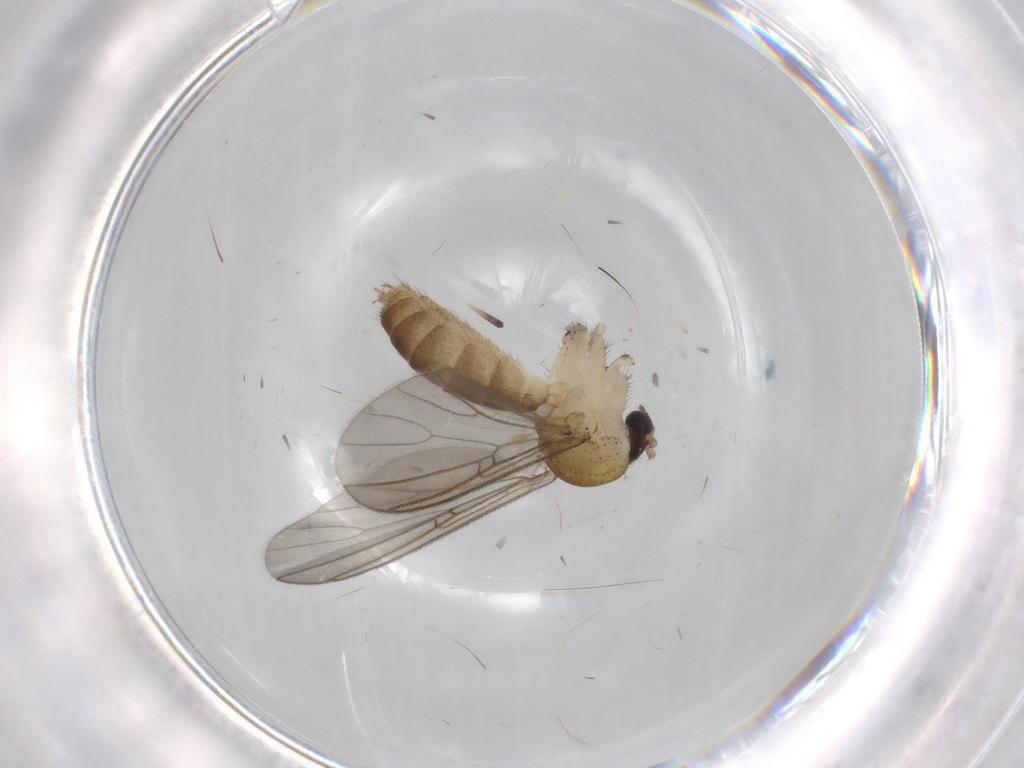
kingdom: Animalia
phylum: Arthropoda
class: Insecta
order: Diptera
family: Mycetophilidae
